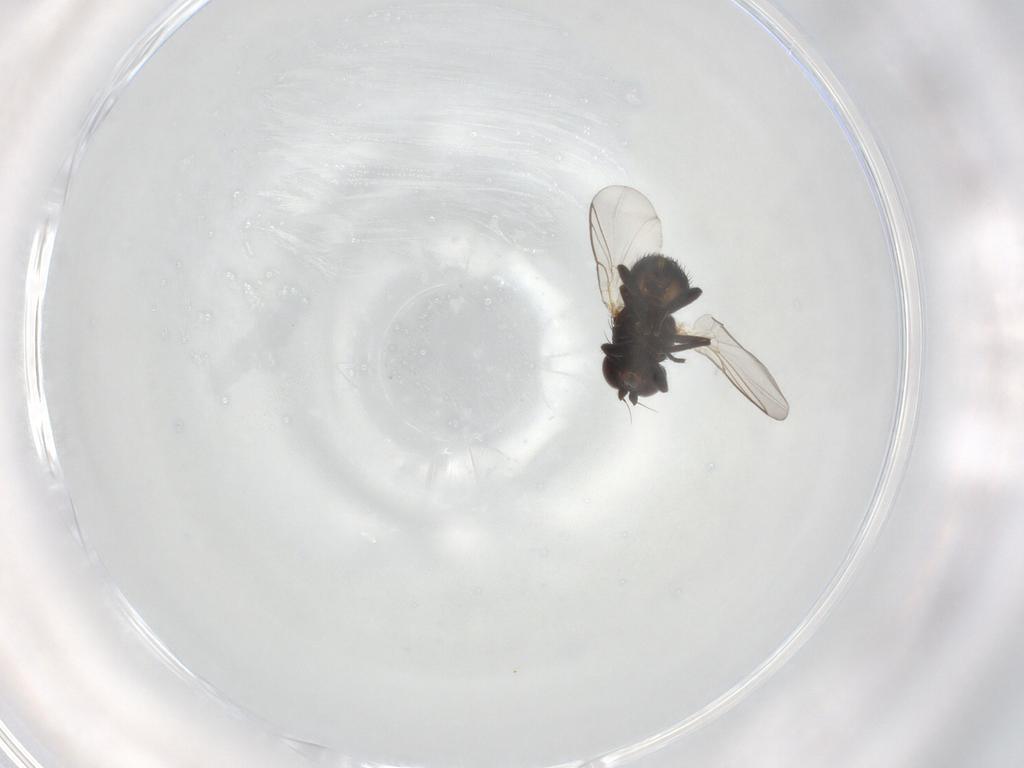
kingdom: Animalia
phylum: Arthropoda
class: Insecta
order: Diptera
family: Agromyzidae
